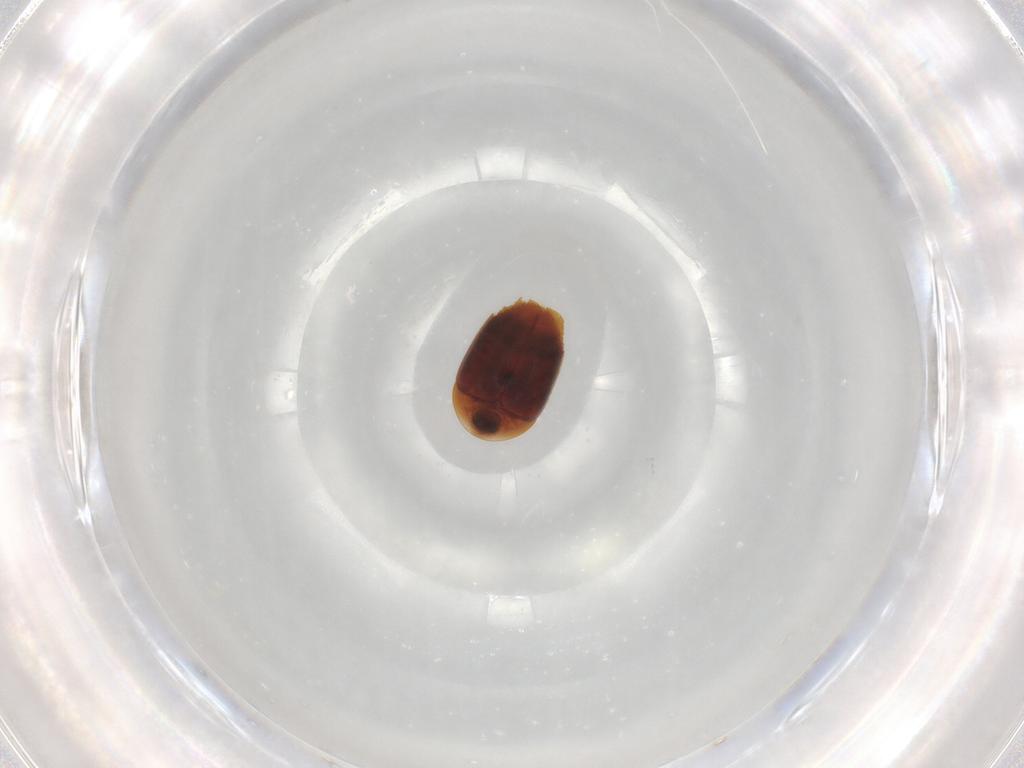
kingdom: Animalia
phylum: Arthropoda
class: Insecta
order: Coleoptera
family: Corylophidae
